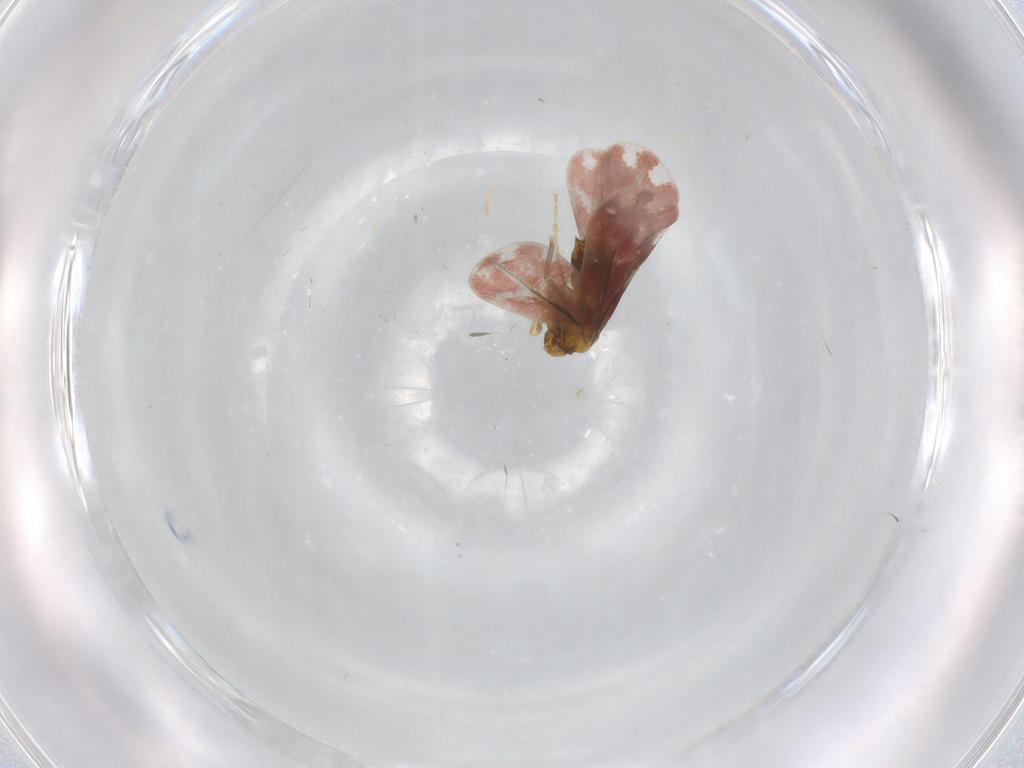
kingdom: Animalia
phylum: Arthropoda
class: Insecta
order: Hemiptera
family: Aleyrodidae
